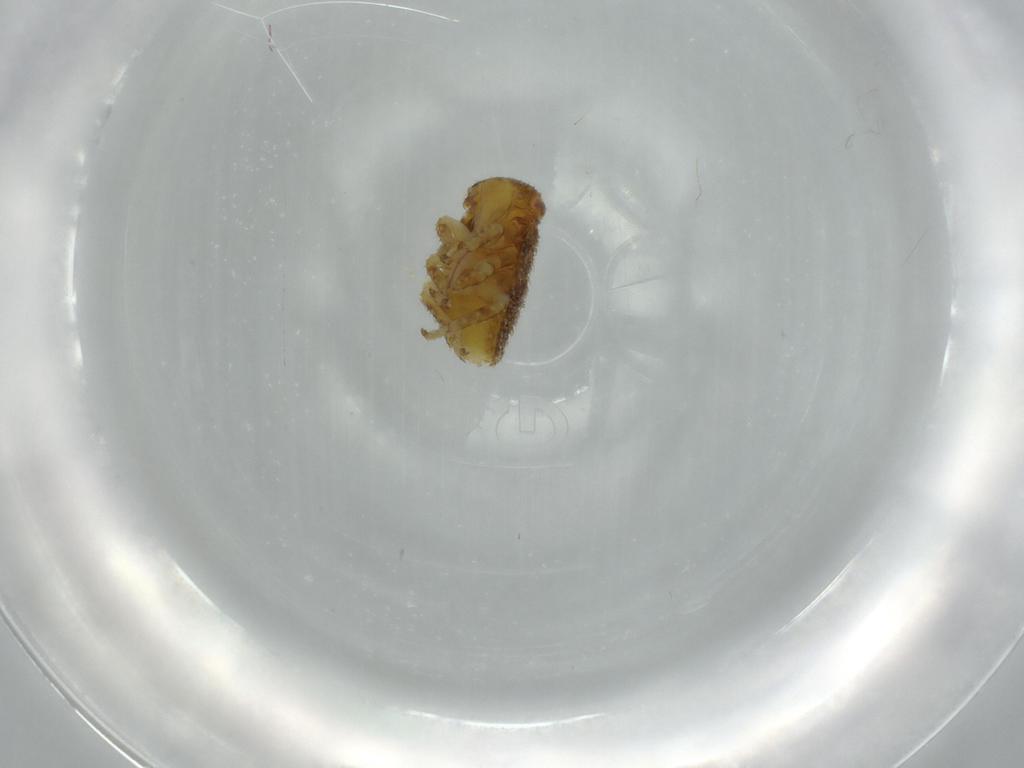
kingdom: Animalia
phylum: Arthropoda
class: Insecta
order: Hemiptera
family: Membracidae
